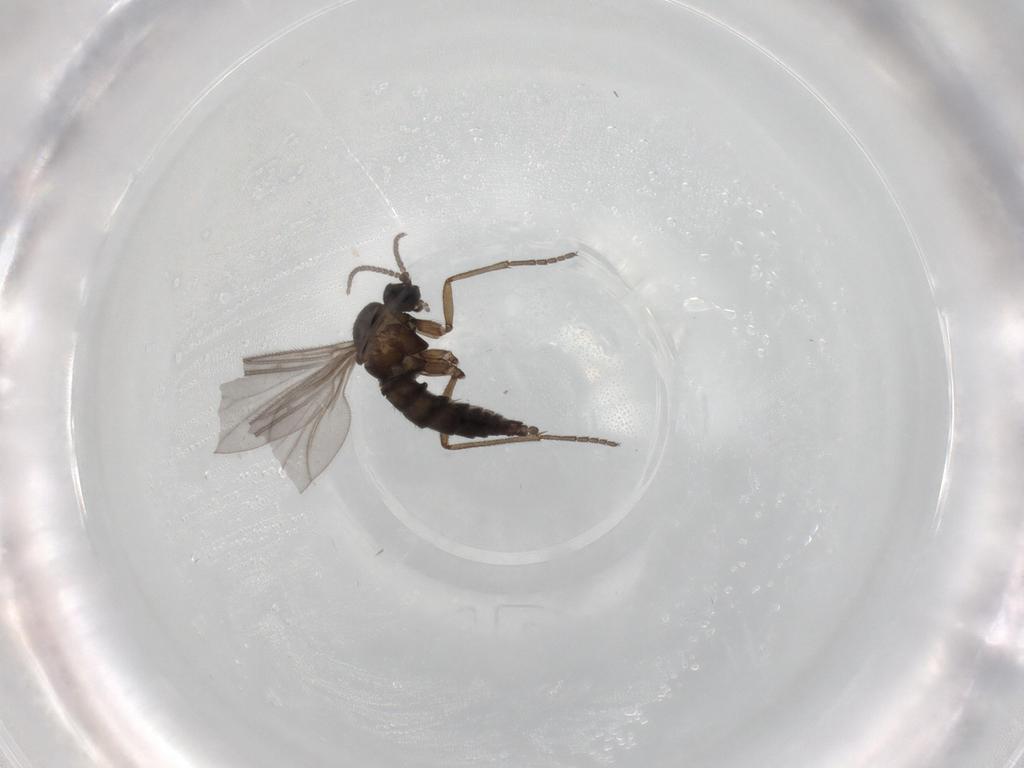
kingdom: Animalia
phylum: Arthropoda
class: Insecta
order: Diptera
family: Sciaridae
